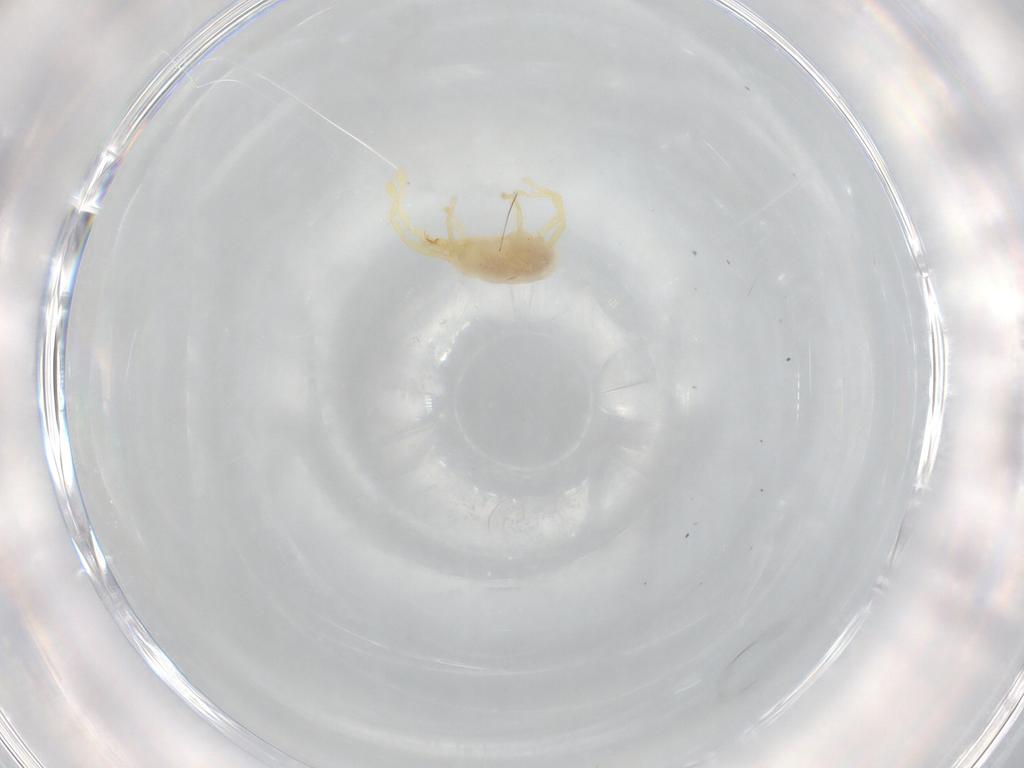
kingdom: Animalia
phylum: Arthropoda
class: Arachnida
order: Trombidiformes
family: Erythraeidae
